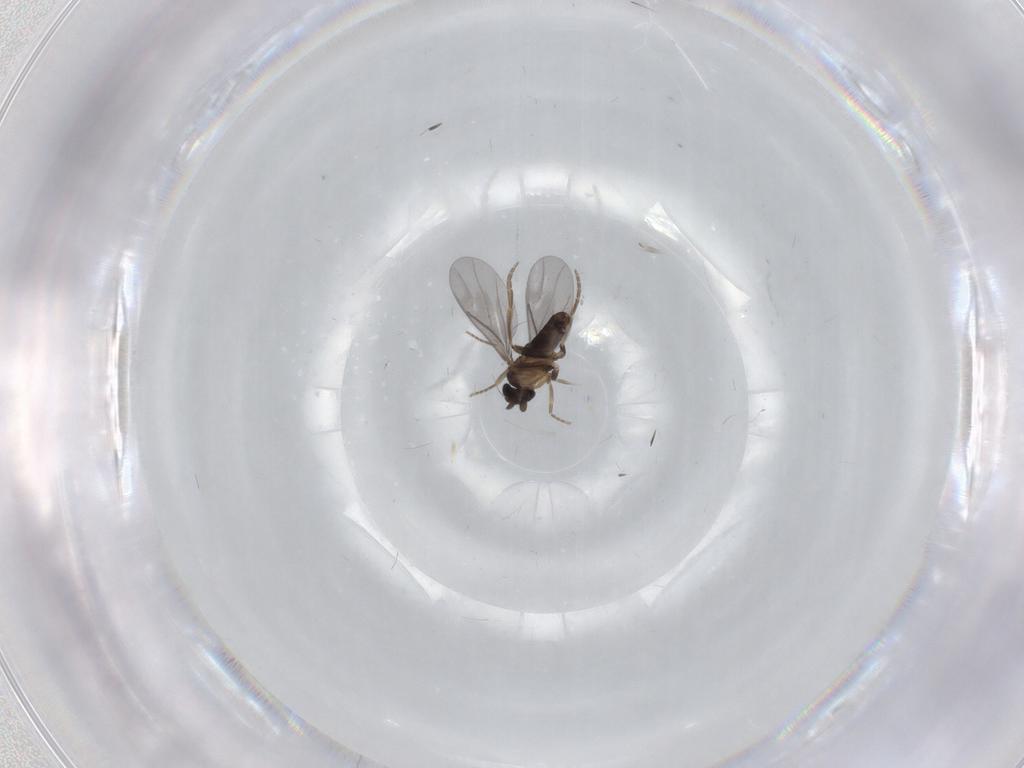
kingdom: Animalia
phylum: Arthropoda
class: Insecta
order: Diptera
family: Phoridae
